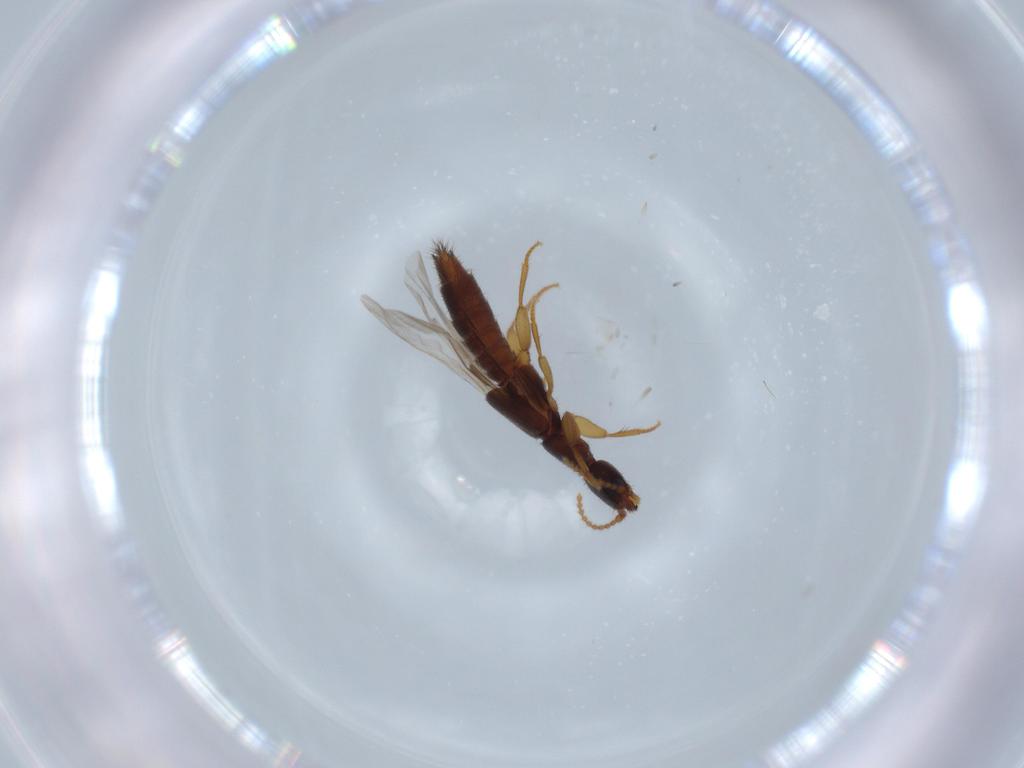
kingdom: Animalia
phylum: Arthropoda
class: Insecta
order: Coleoptera
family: Staphylinidae
